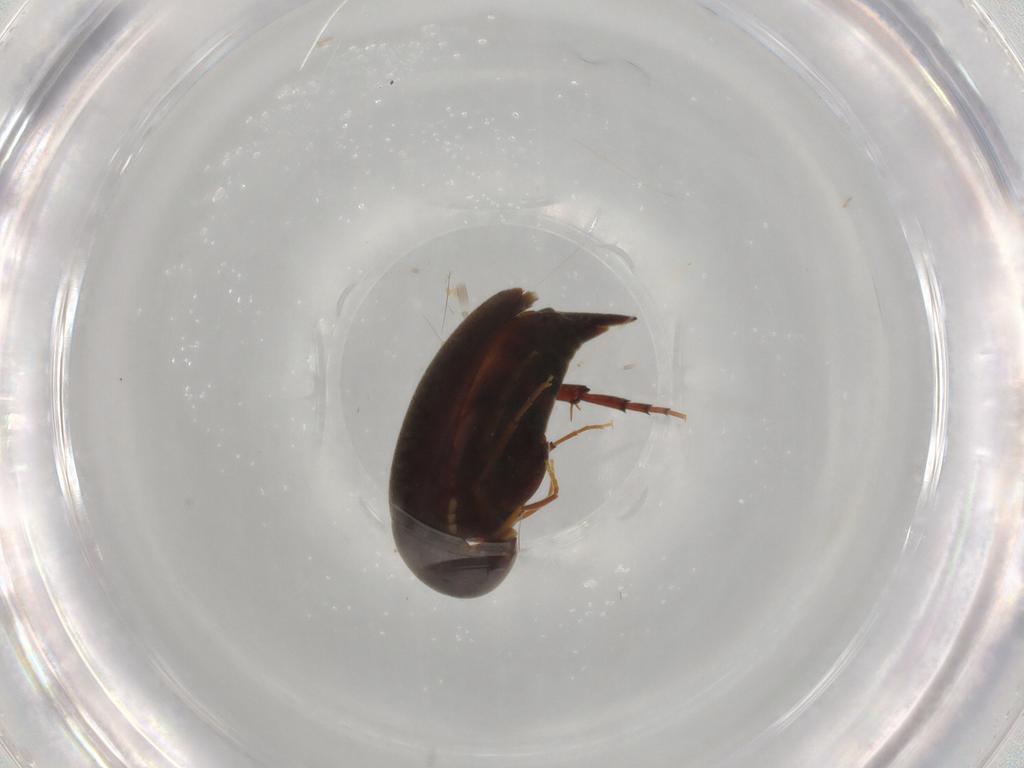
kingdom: Animalia
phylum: Arthropoda
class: Insecta
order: Coleoptera
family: Mordellidae
